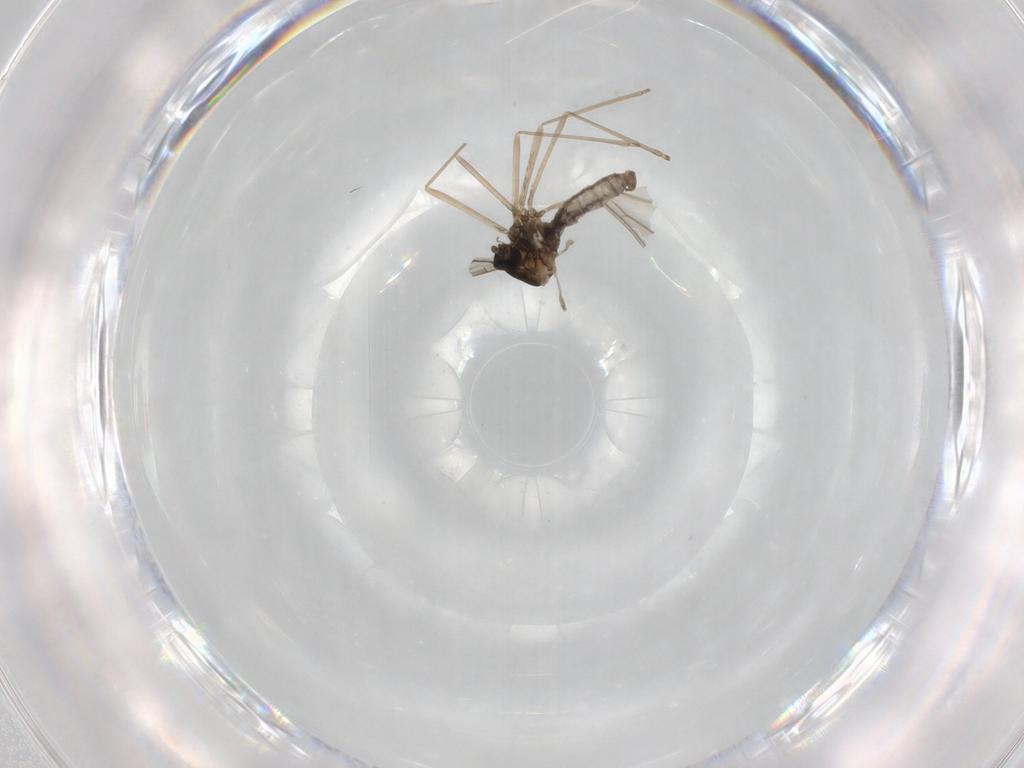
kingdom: Animalia
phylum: Arthropoda
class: Insecta
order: Diptera
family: Cecidomyiidae
